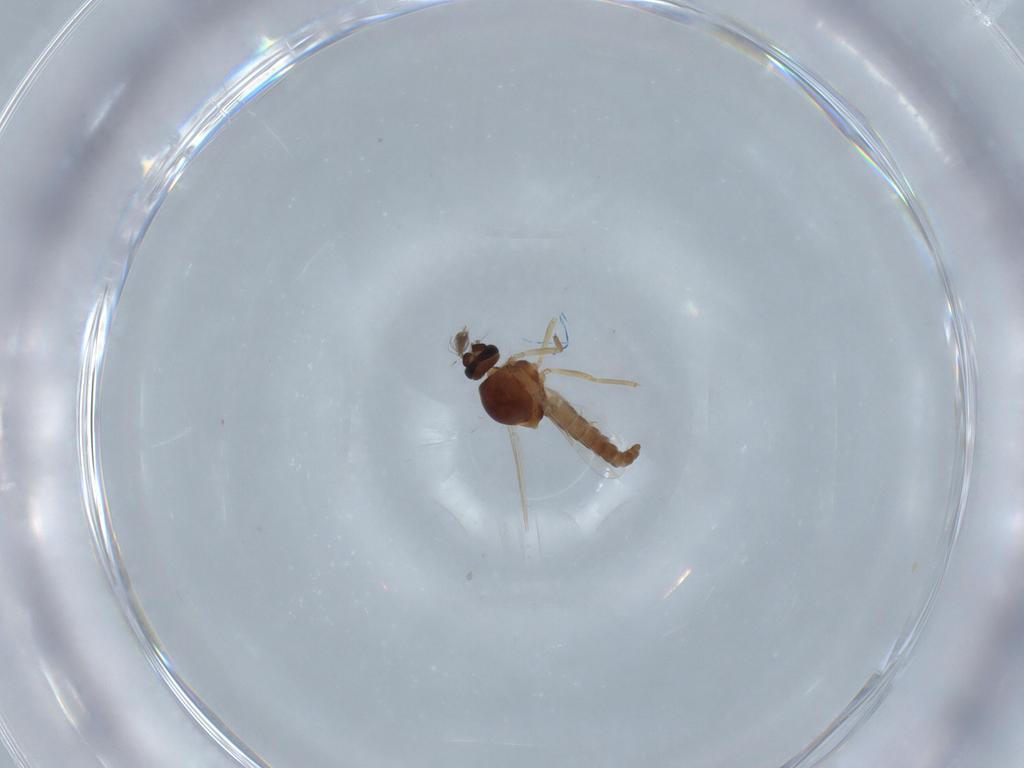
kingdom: Animalia
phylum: Arthropoda
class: Insecta
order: Diptera
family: Ceratopogonidae
